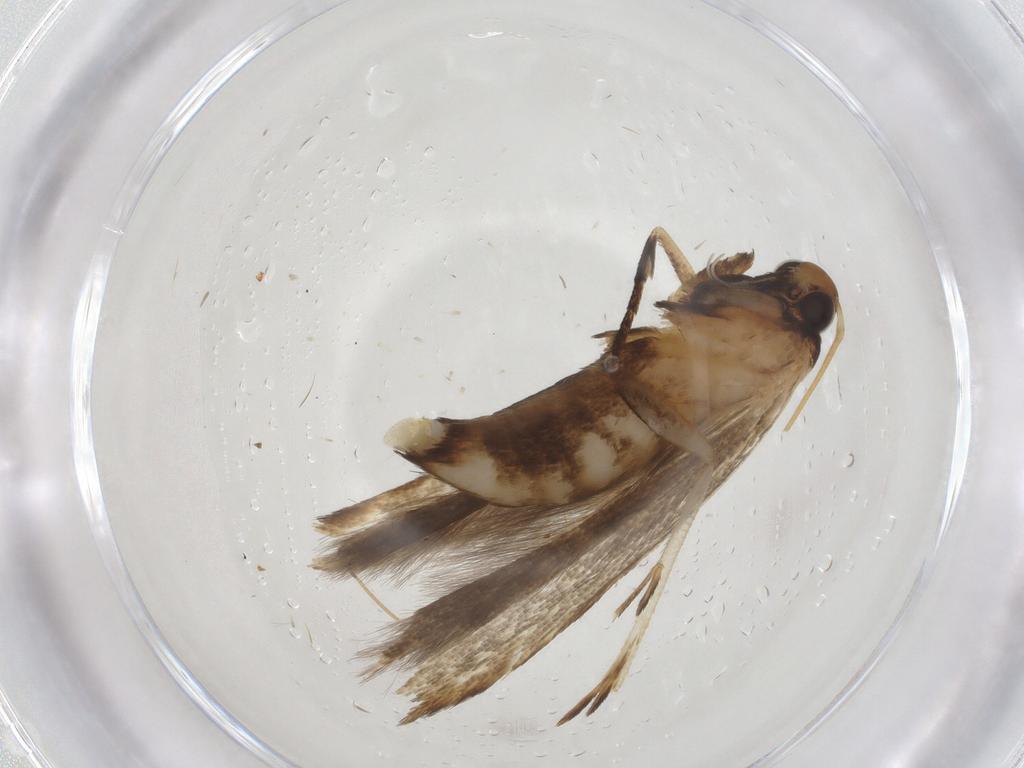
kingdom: Animalia
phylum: Arthropoda
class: Insecta
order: Lepidoptera
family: Gelechiidae
